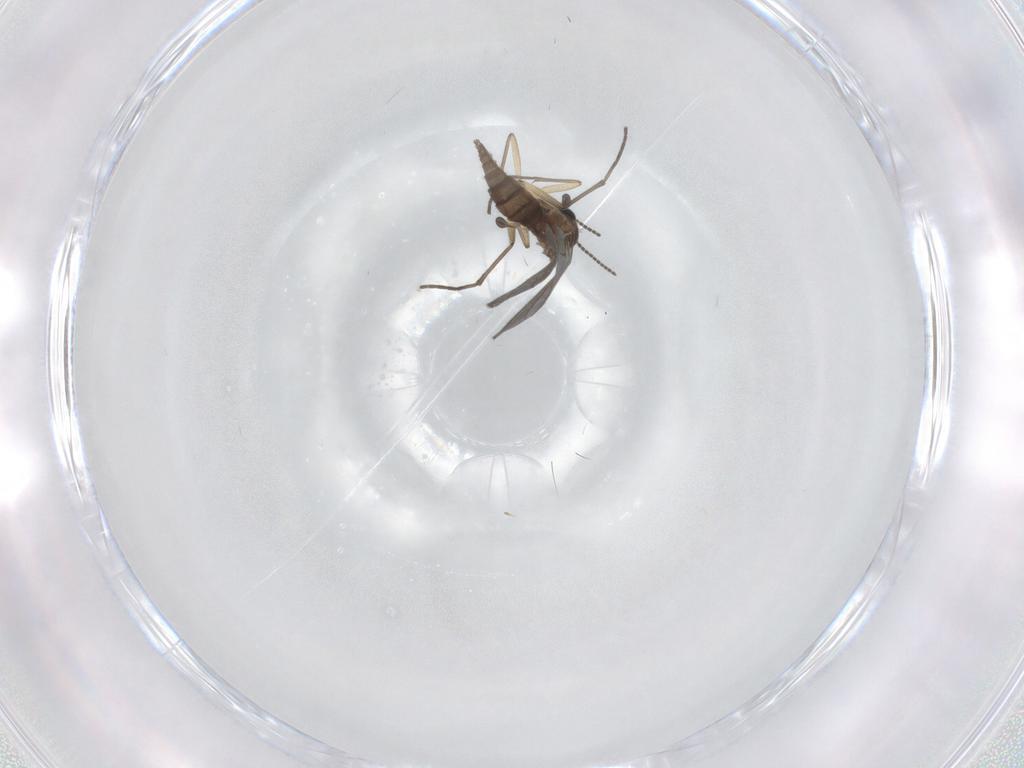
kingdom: Animalia
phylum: Arthropoda
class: Insecta
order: Diptera
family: Sciaridae
